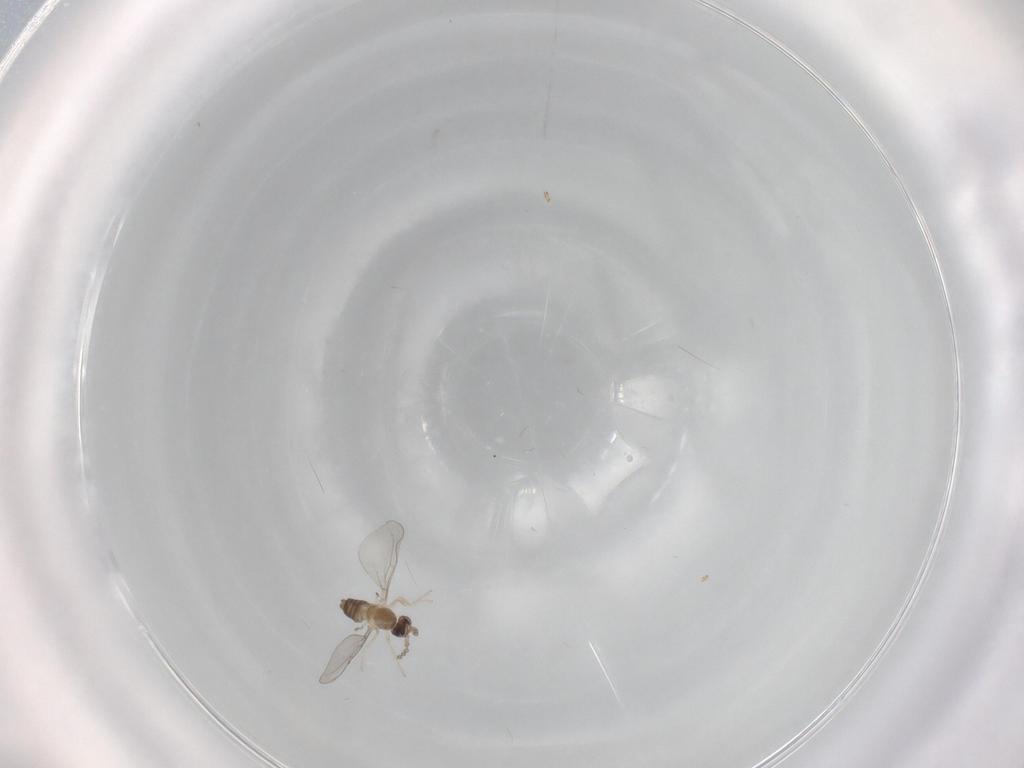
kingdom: Animalia
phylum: Arthropoda
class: Insecta
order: Diptera
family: Cecidomyiidae
